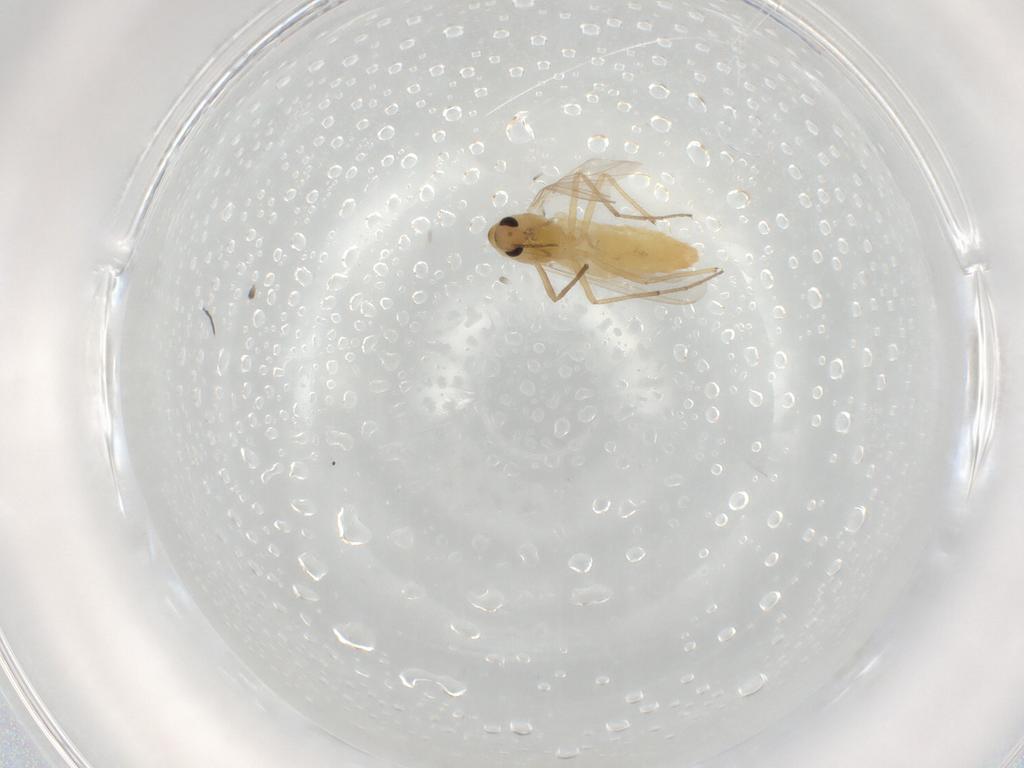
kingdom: Animalia
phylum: Arthropoda
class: Insecta
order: Diptera
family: Chironomidae
